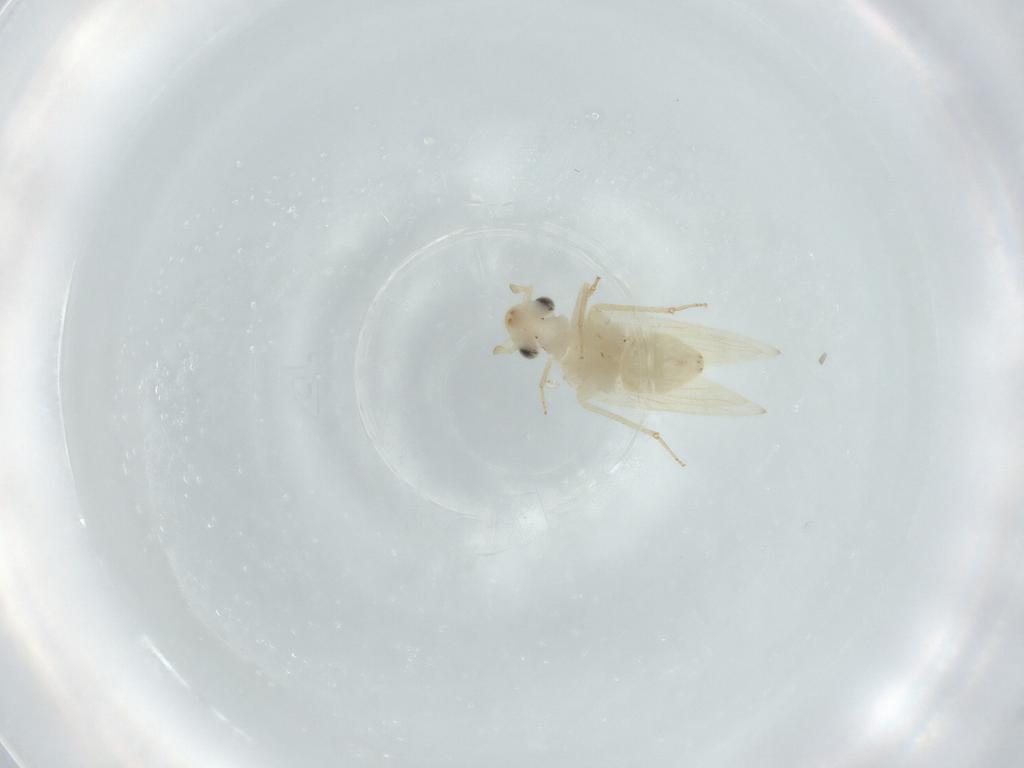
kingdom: Animalia
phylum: Arthropoda
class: Insecta
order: Psocodea
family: Lepidopsocidae
